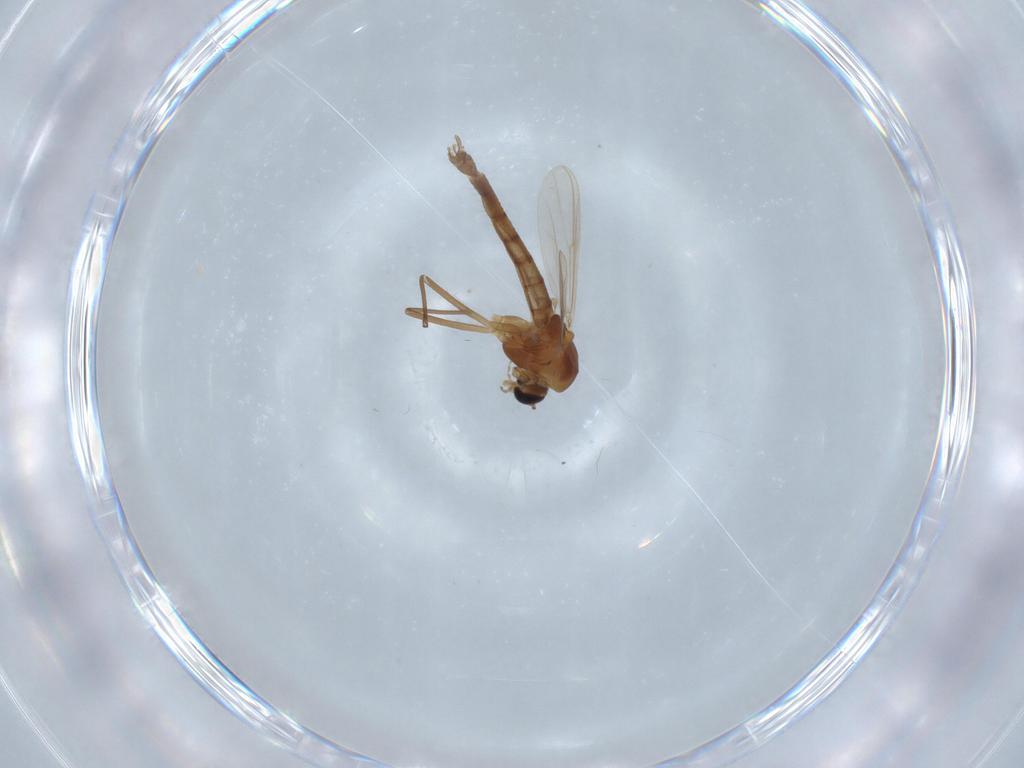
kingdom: Animalia
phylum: Arthropoda
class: Insecta
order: Diptera
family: Chironomidae
